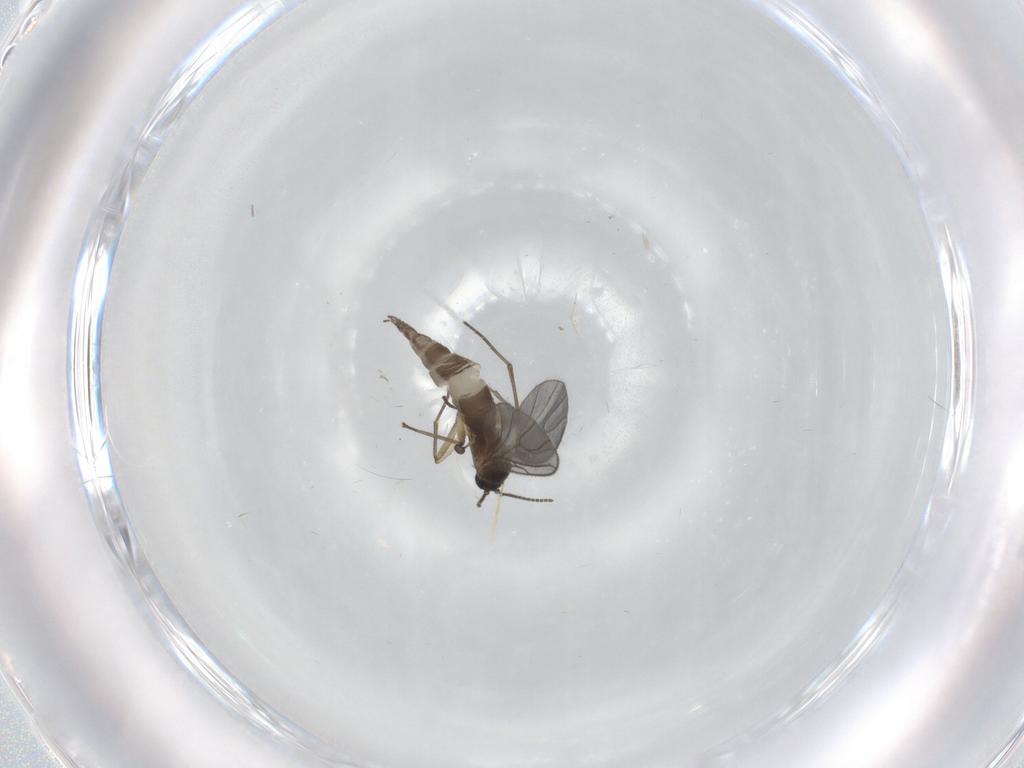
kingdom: Animalia
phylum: Arthropoda
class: Insecta
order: Diptera
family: Sciaridae
